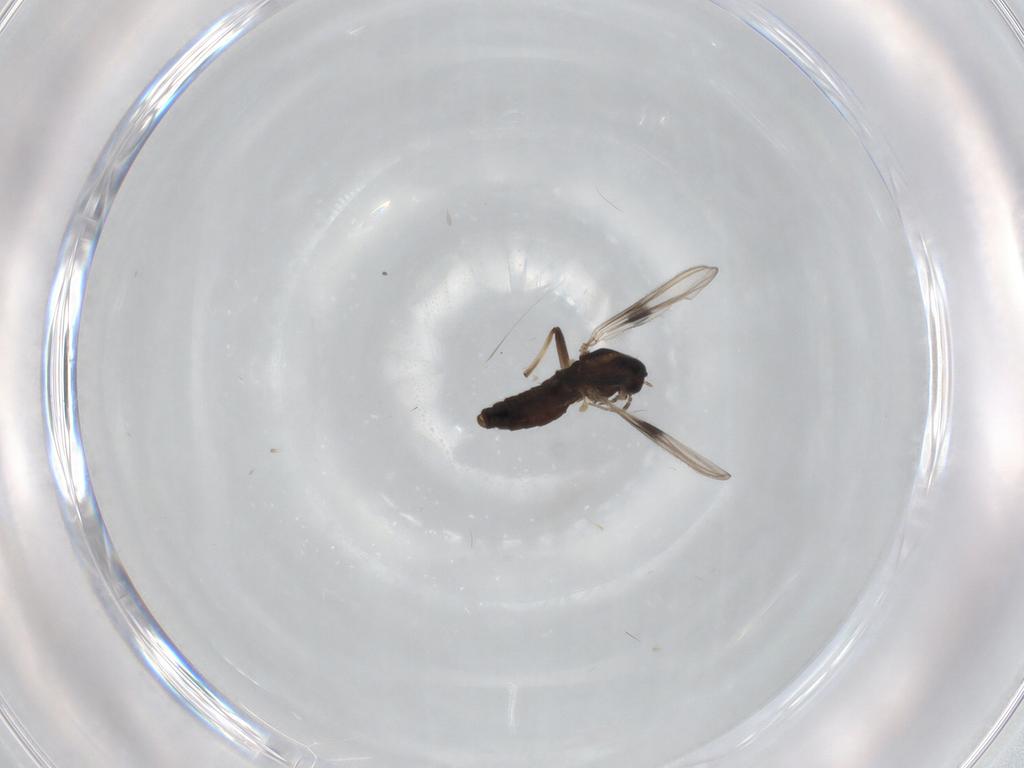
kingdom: Animalia
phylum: Arthropoda
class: Insecta
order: Diptera
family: Chironomidae
